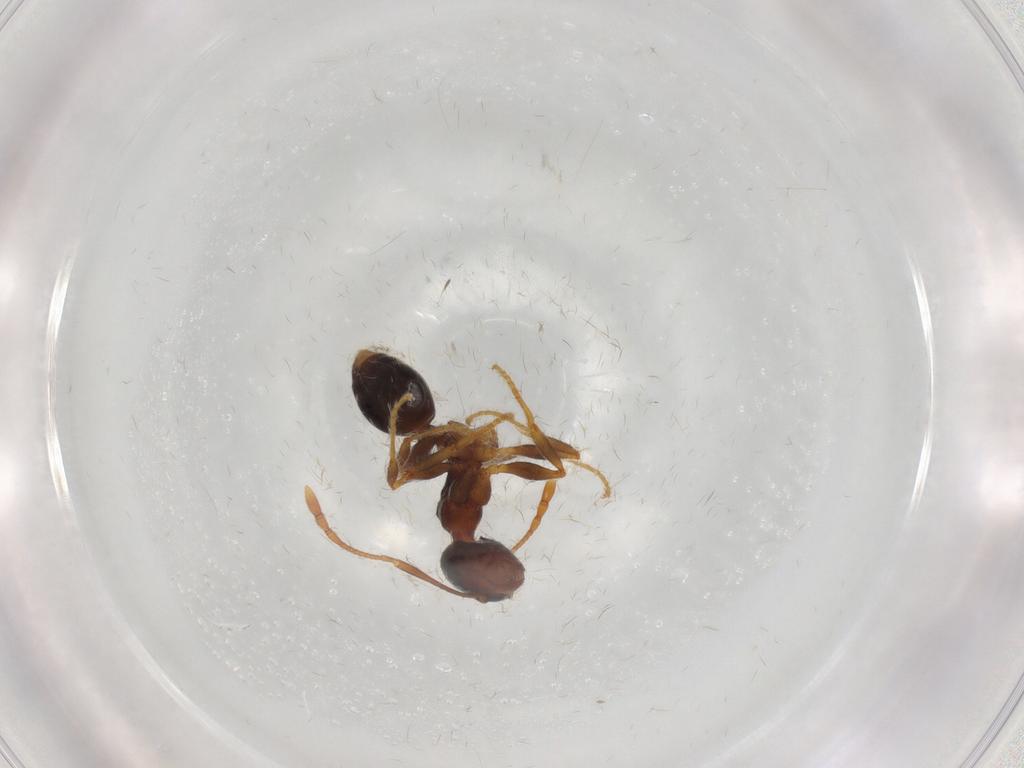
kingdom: Animalia
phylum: Arthropoda
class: Insecta
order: Hymenoptera
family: Formicidae
